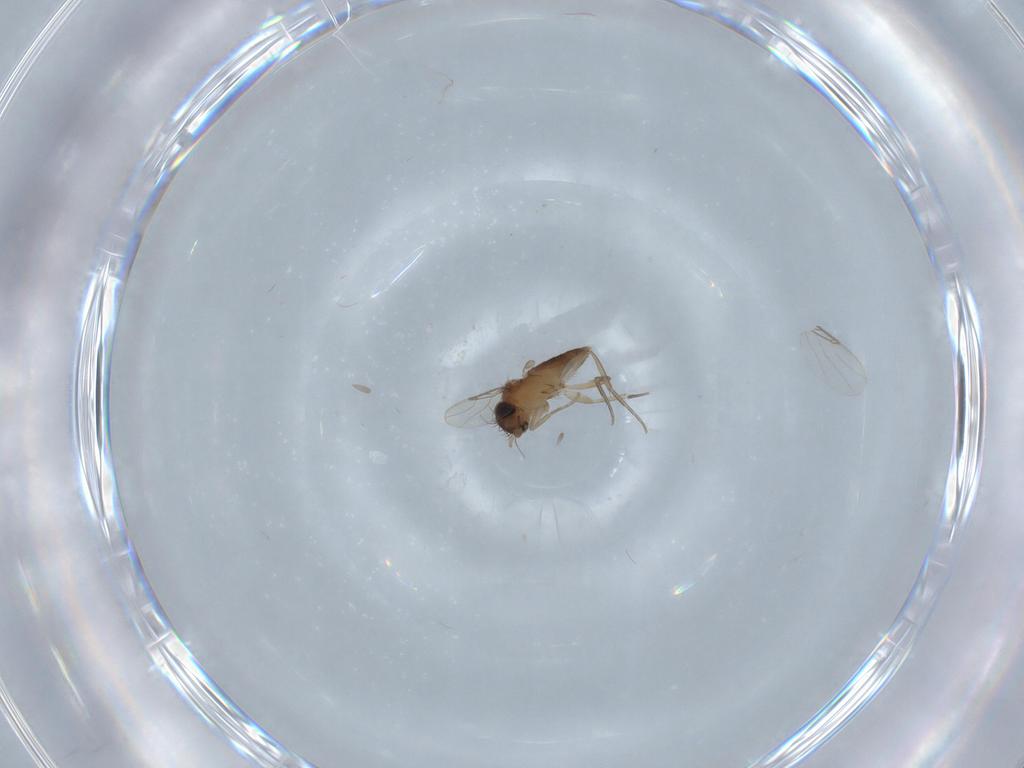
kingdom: Animalia
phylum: Arthropoda
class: Insecta
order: Diptera
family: Phoridae
